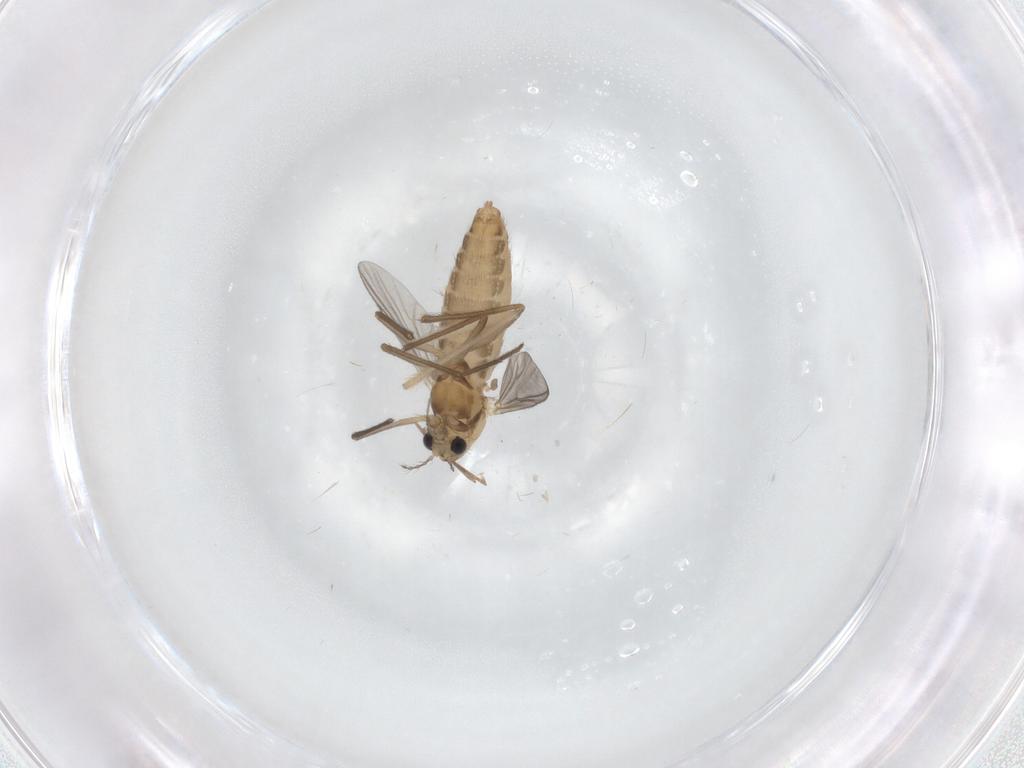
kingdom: Animalia
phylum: Arthropoda
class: Insecta
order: Diptera
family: Chironomidae
